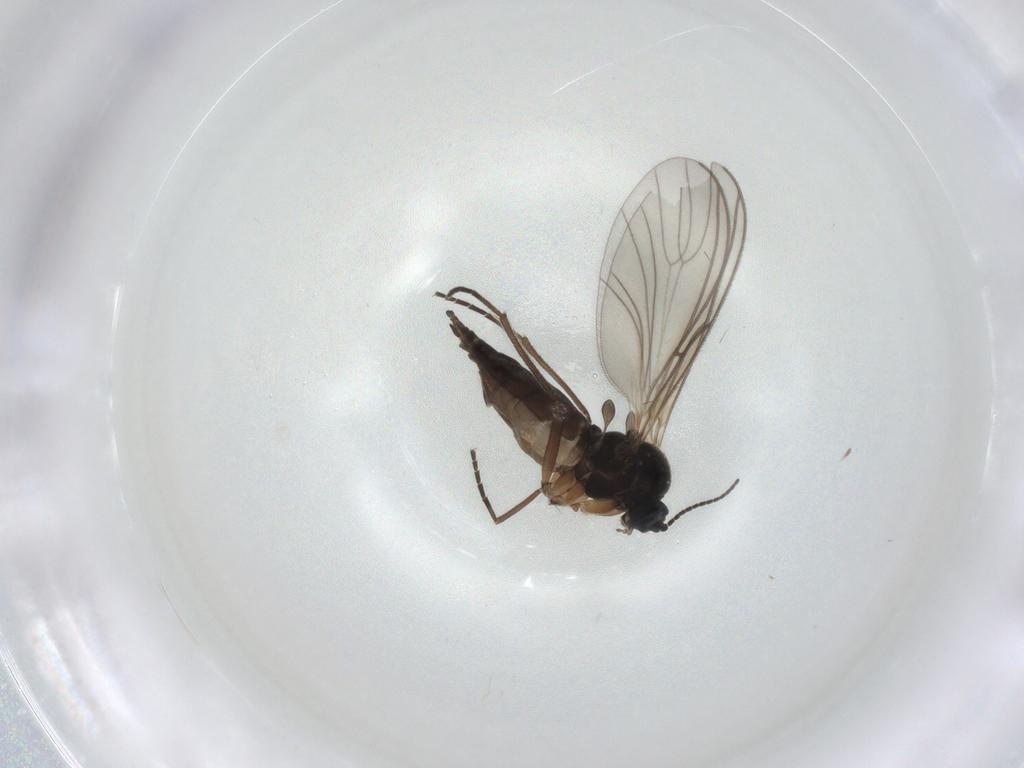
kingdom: Animalia
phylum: Arthropoda
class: Insecta
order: Diptera
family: Sciaridae
